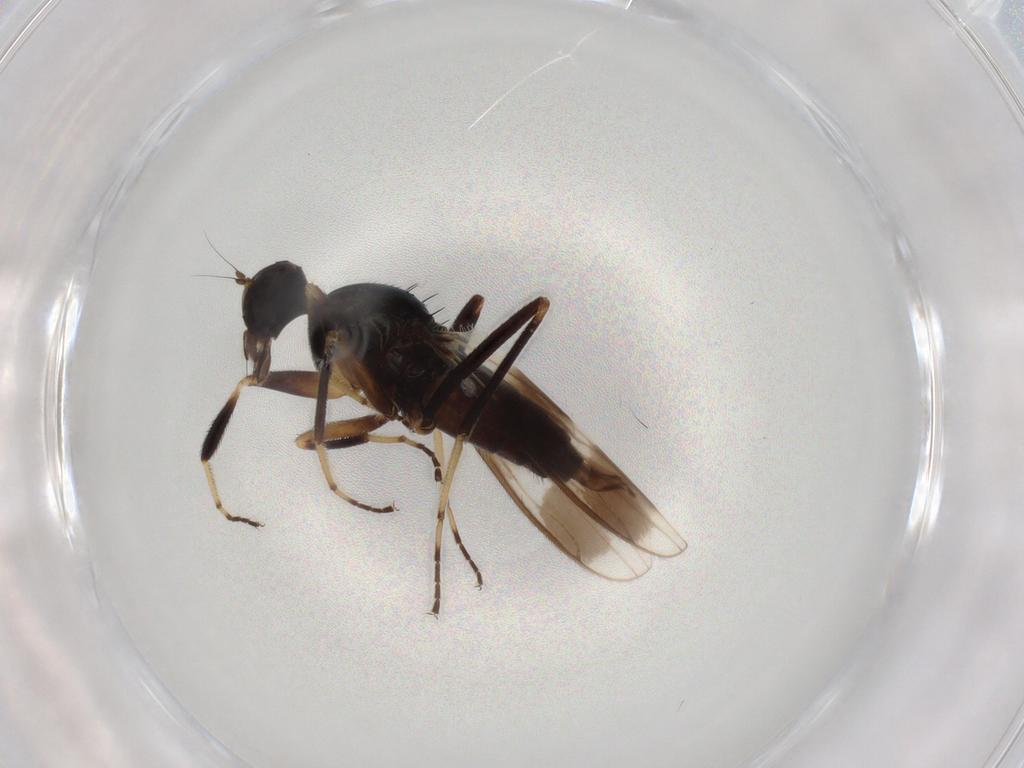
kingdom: Animalia
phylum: Arthropoda
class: Insecta
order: Diptera
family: Hybotidae
